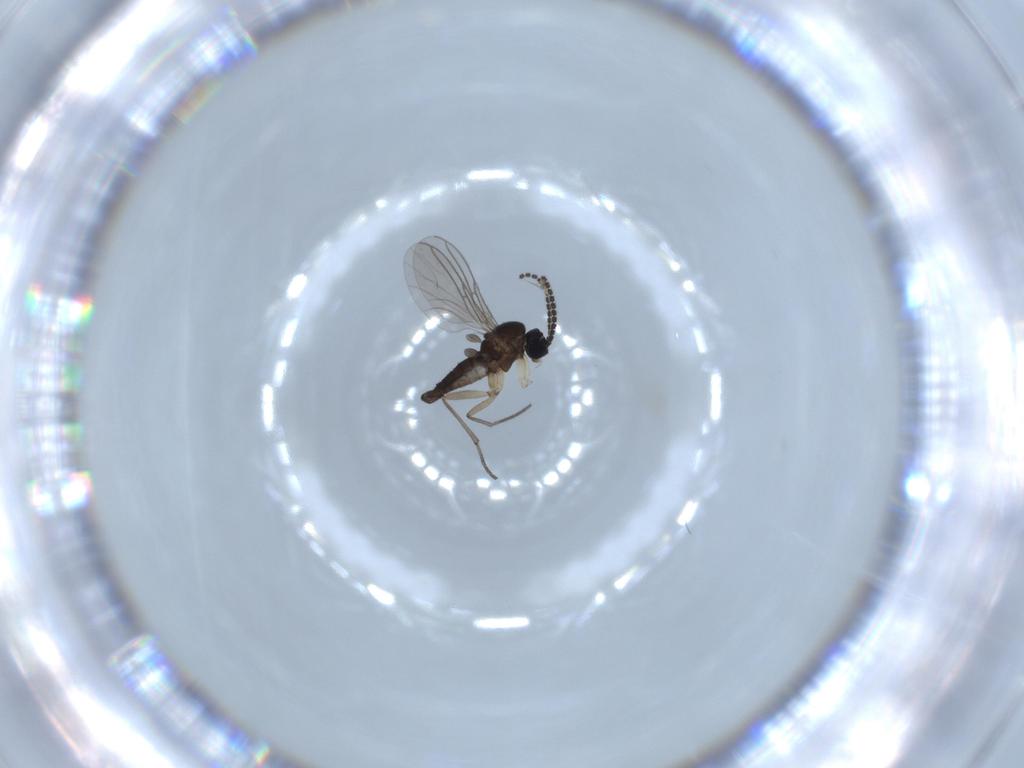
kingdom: Animalia
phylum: Arthropoda
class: Insecta
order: Diptera
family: Sciaridae
